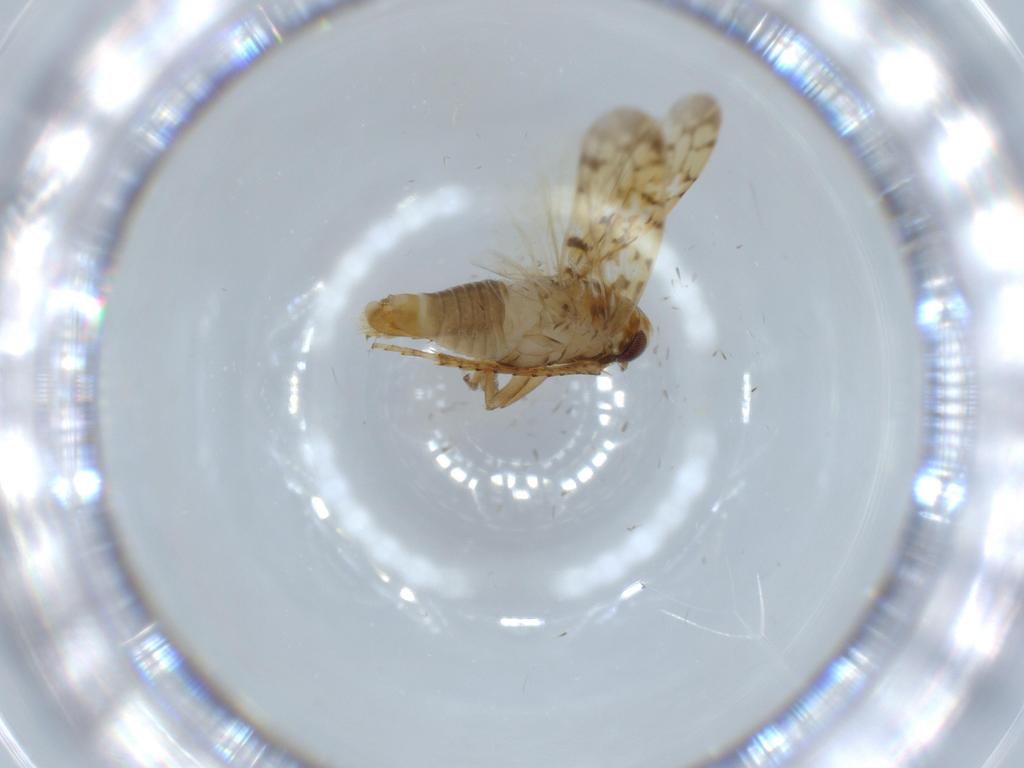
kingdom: Animalia
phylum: Arthropoda
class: Insecta
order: Hemiptera
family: Cicadellidae
